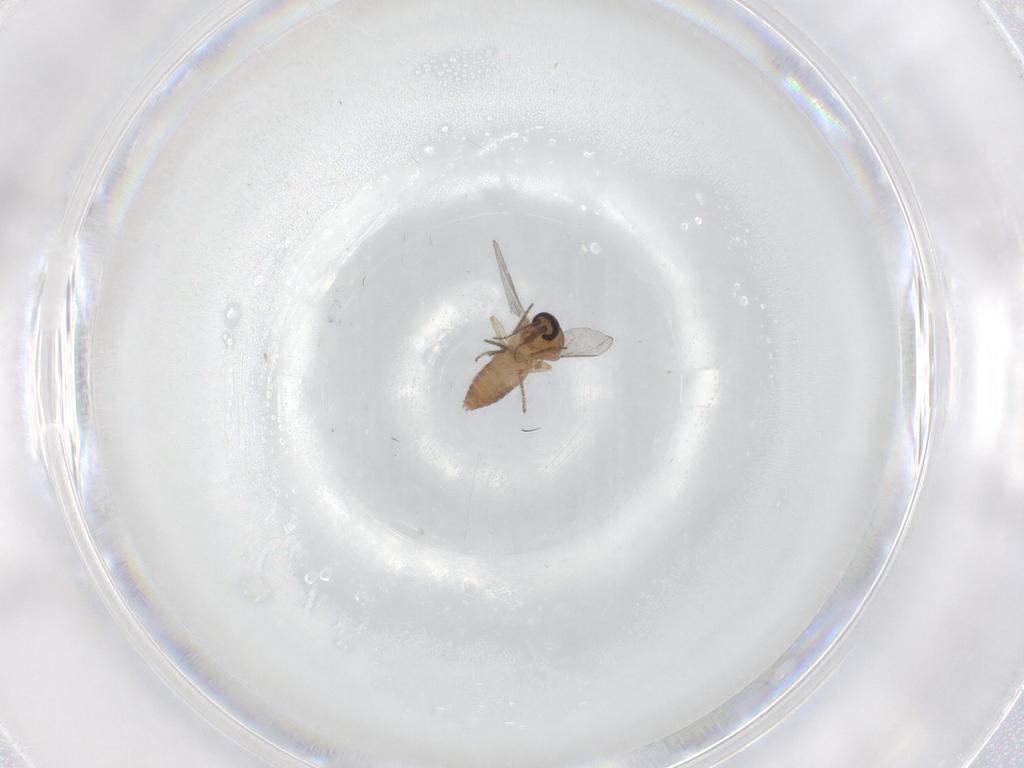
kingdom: Animalia
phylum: Arthropoda
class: Insecta
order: Diptera
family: Ceratopogonidae
